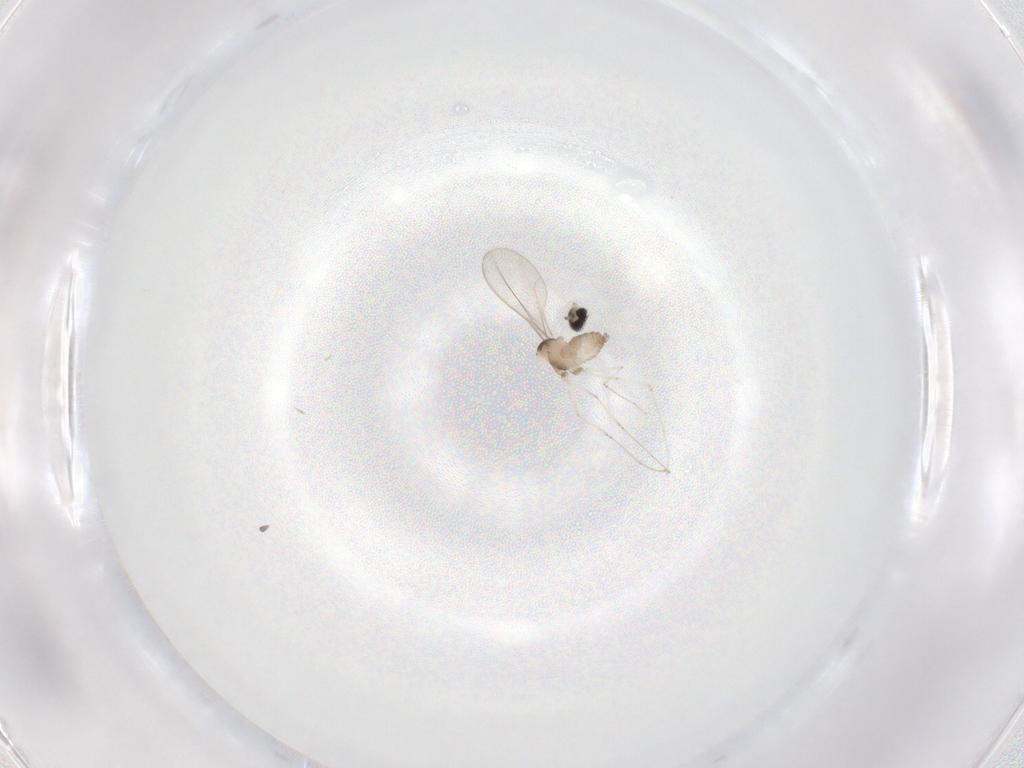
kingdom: Animalia
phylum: Arthropoda
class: Insecta
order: Diptera
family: Cecidomyiidae
